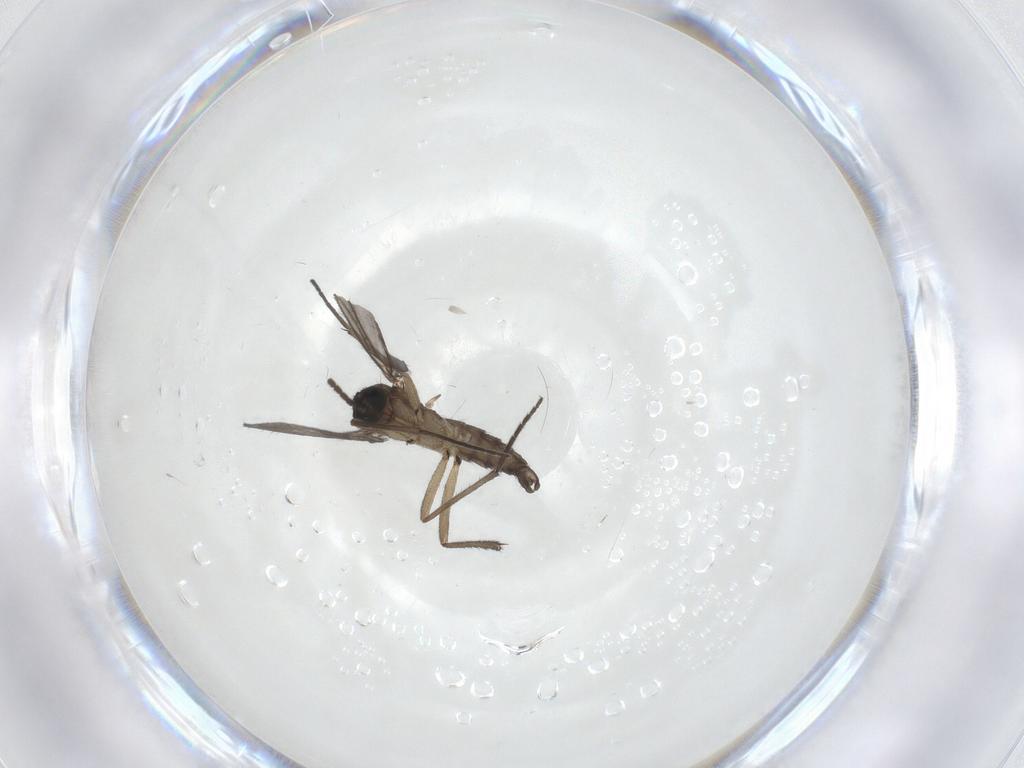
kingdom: Animalia
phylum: Arthropoda
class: Insecta
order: Diptera
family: Sciaridae
